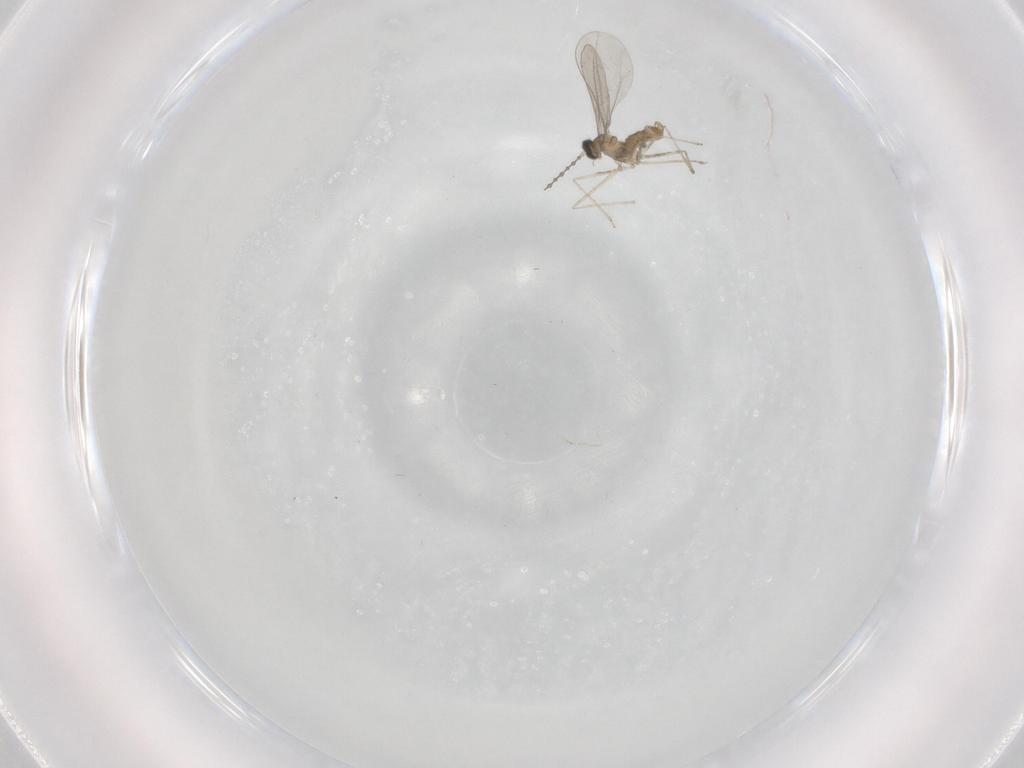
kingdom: Animalia
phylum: Arthropoda
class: Insecta
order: Diptera
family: Cecidomyiidae
